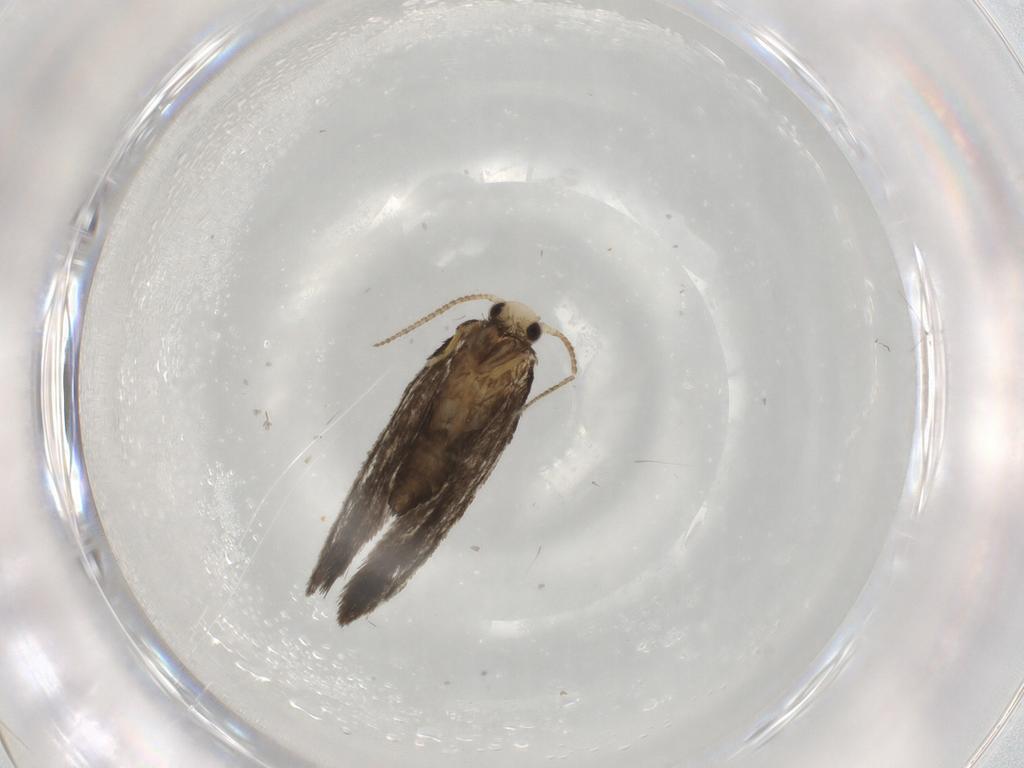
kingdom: Animalia
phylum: Arthropoda
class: Insecta
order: Lepidoptera
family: Psychidae
